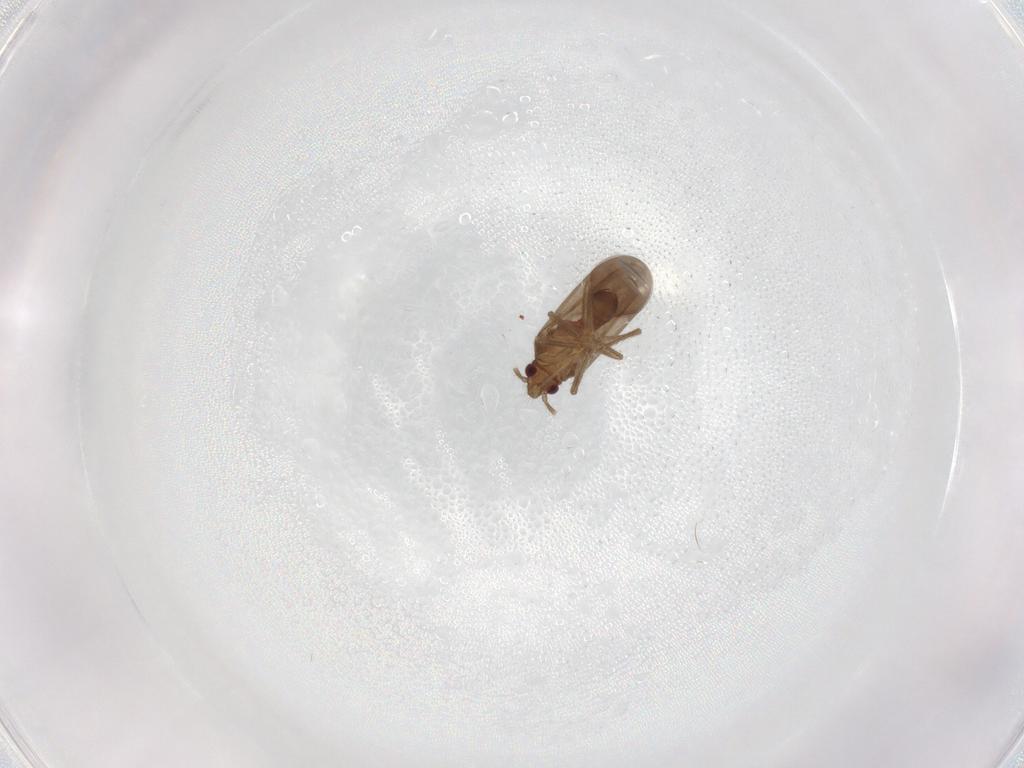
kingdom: Animalia
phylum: Arthropoda
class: Insecta
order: Hemiptera
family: Ceratocombidae
